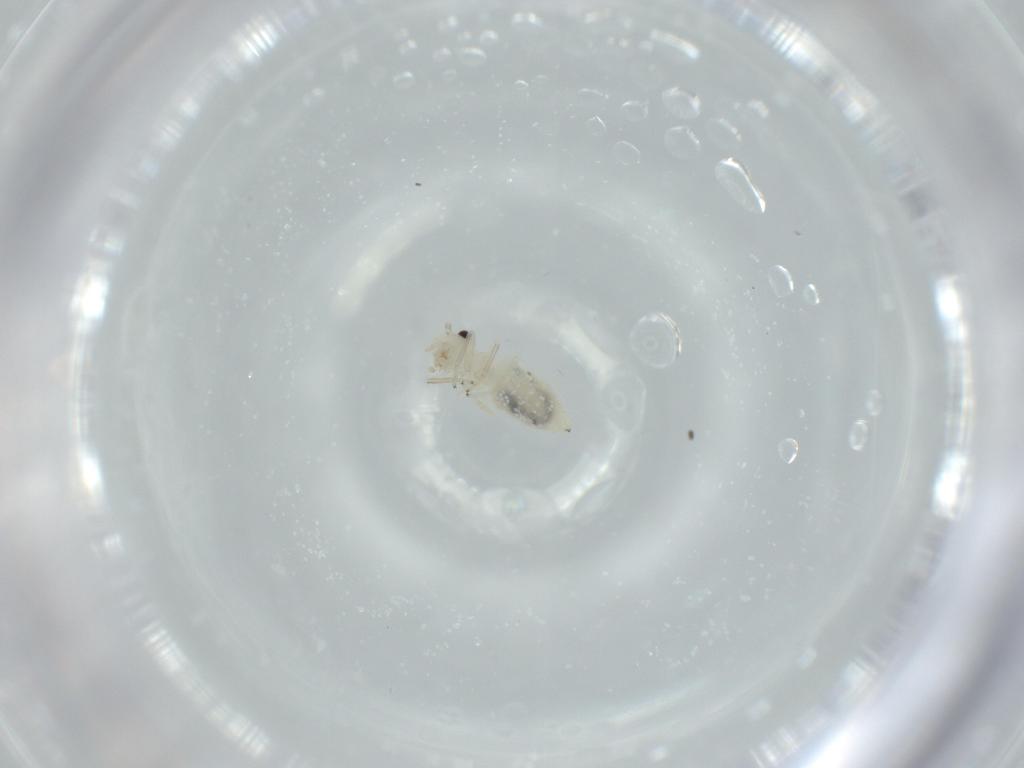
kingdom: Animalia
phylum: Arthropoda
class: Insecta
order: Psocodea
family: Caeciliusidae
